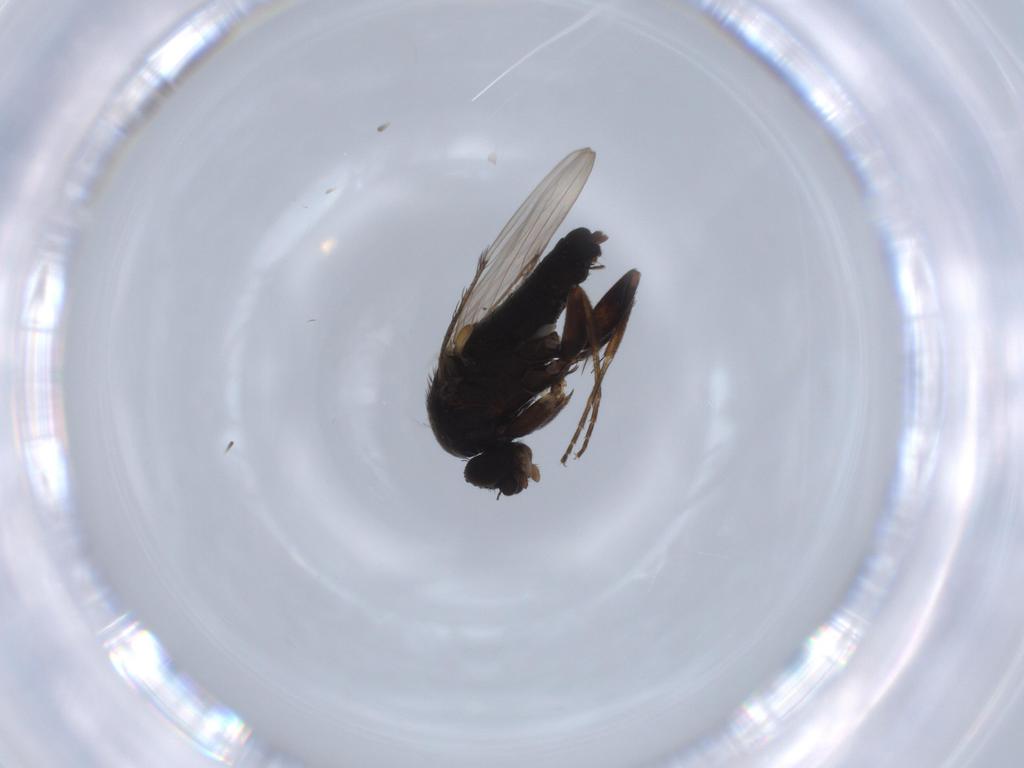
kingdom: Animalia
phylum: Arthropoda
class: Insecta
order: Diptera
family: Phoridae
